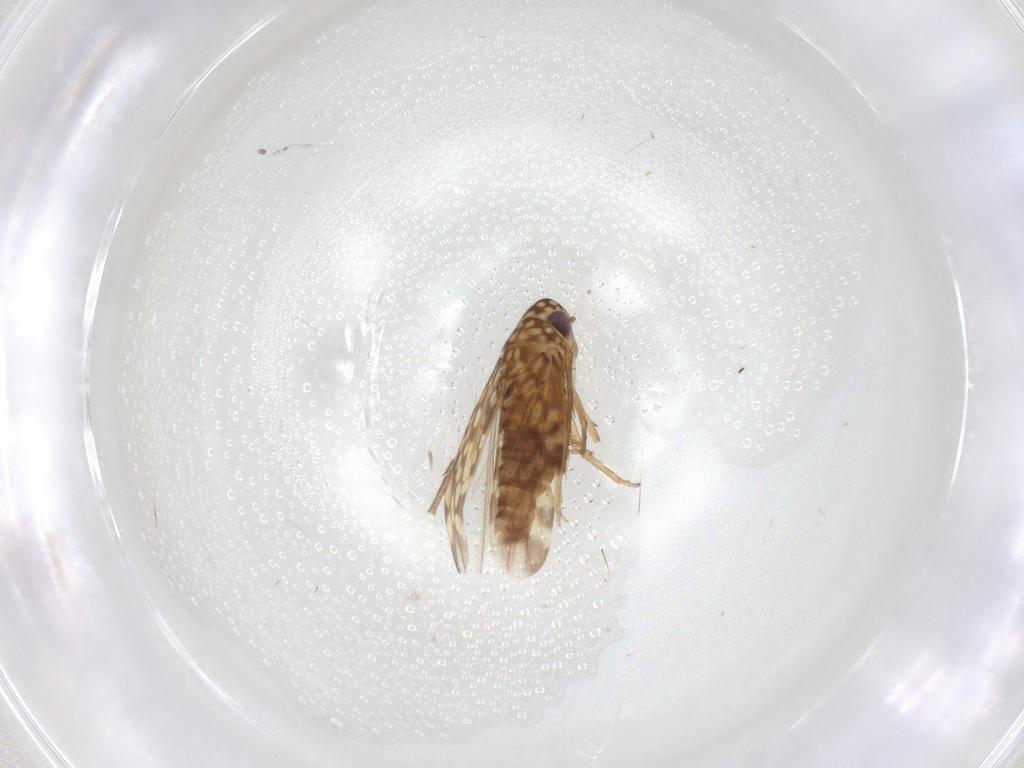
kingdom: Animalia
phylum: Arthropoda
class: Insecta
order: Hemiptera
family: Cicadellidae
